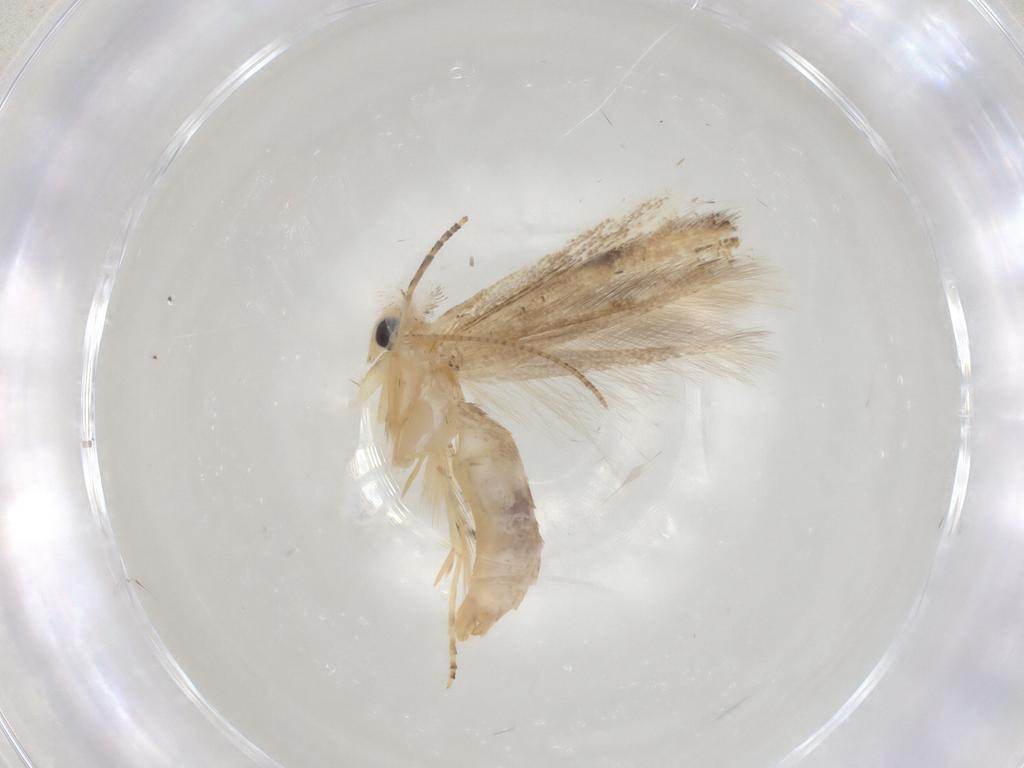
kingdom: Animalia
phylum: Arthropoda
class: Insecta
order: Lepidoptera
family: Bucculatricidae
